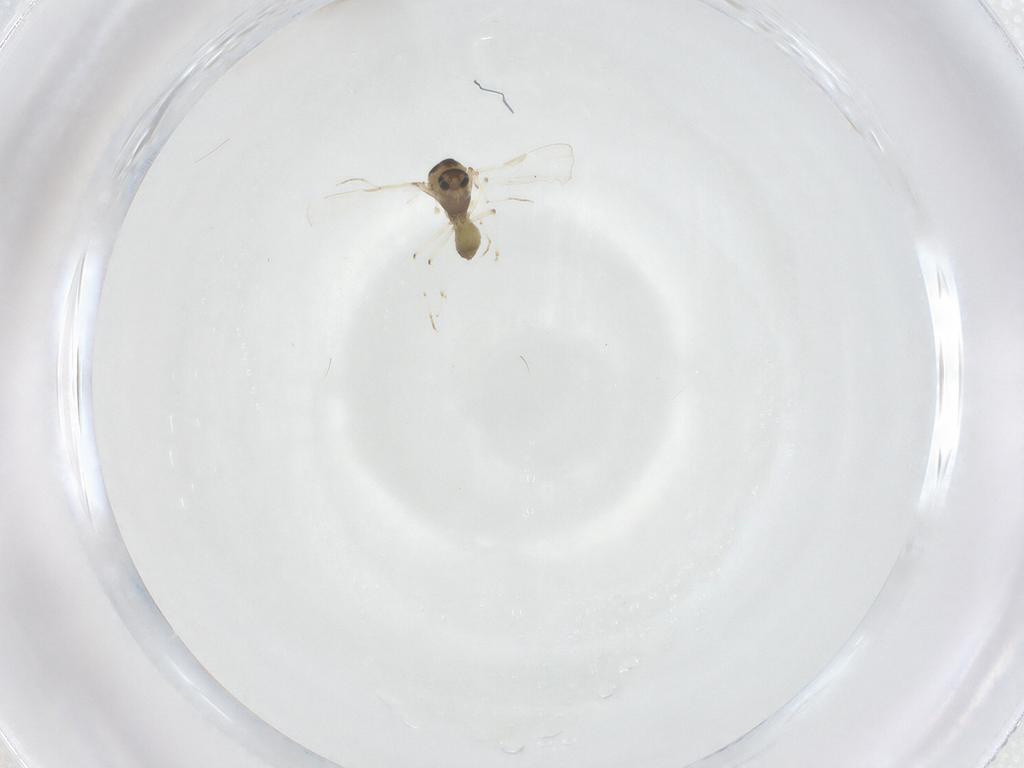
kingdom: Animalia
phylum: Arthropoda
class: Insecta
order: Diptera
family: Chironomidae
